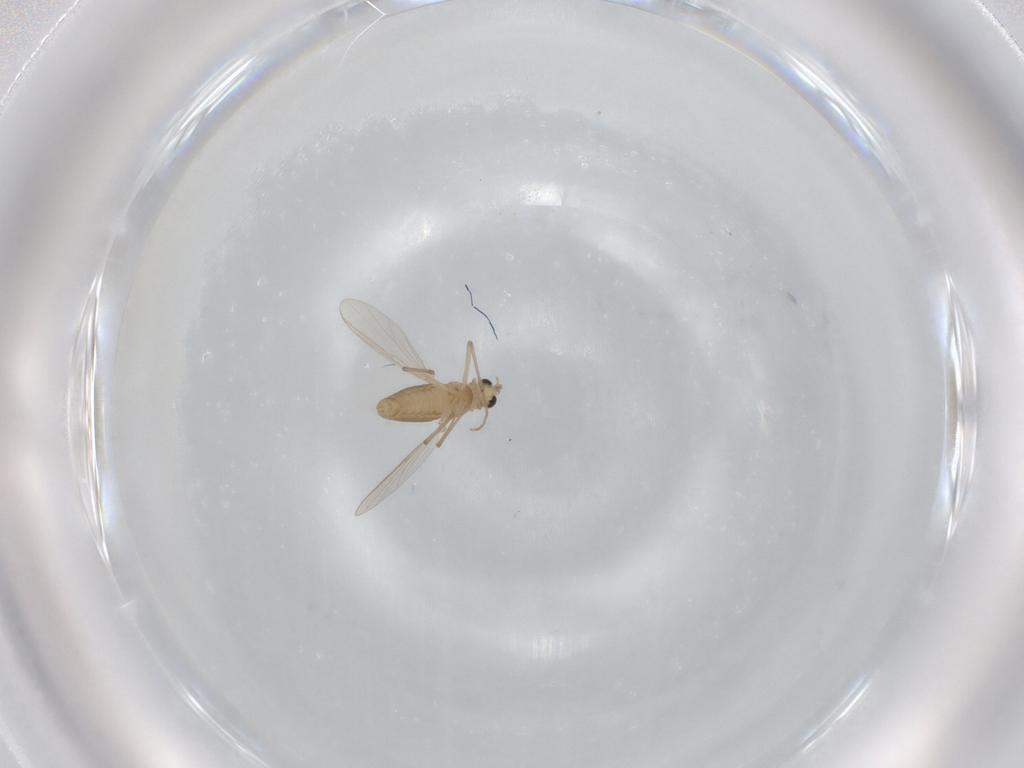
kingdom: Animalia
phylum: Arthropoda
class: Insecta
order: Diptera
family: Chironomidae
